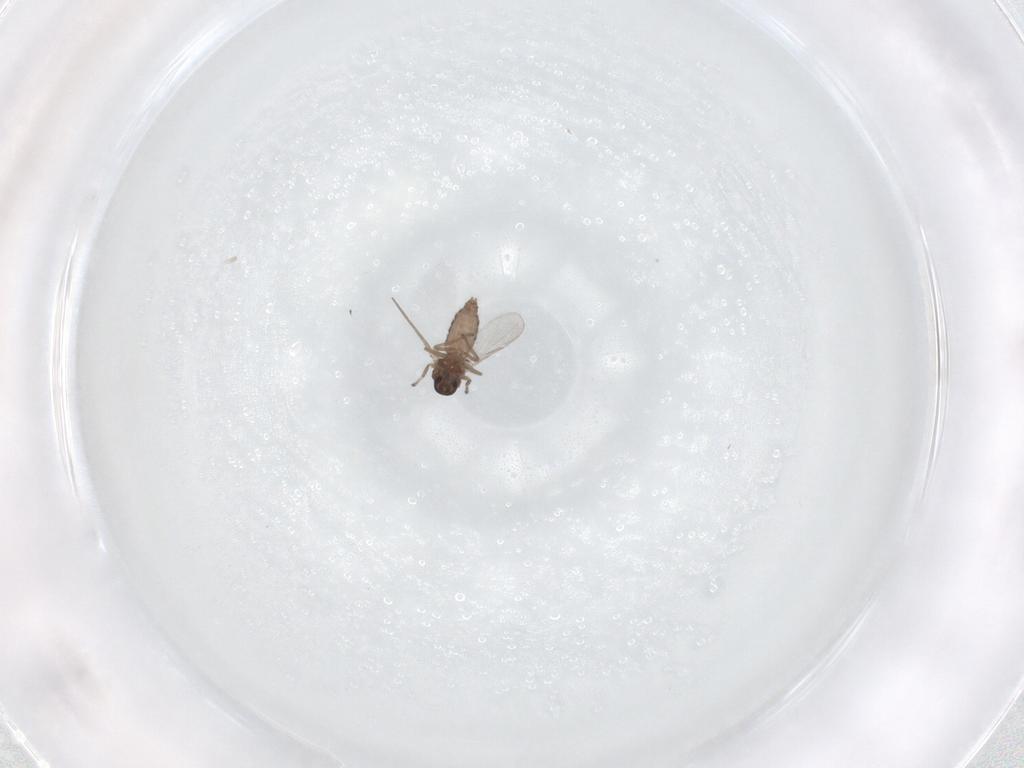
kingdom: Animalia
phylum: Arthropoda
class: Insecta
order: Diptera
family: Ceratopogonidae
